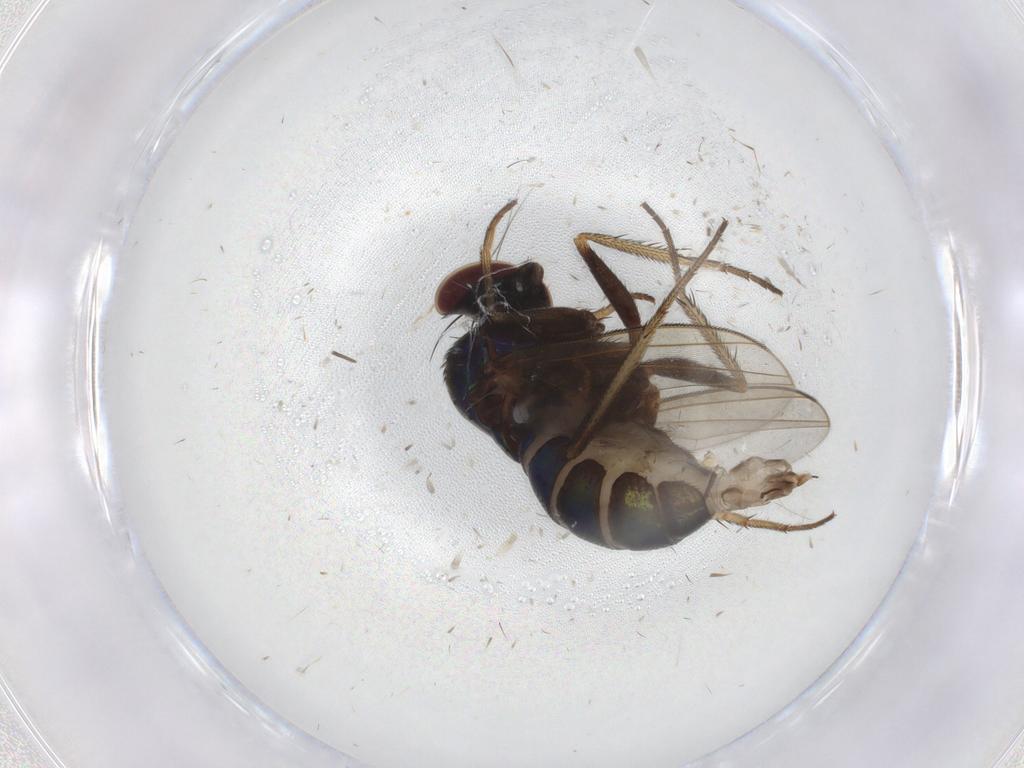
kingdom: Animalia
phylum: Arthropoda
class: Insecta
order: Diptera
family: Dolichopodidae
